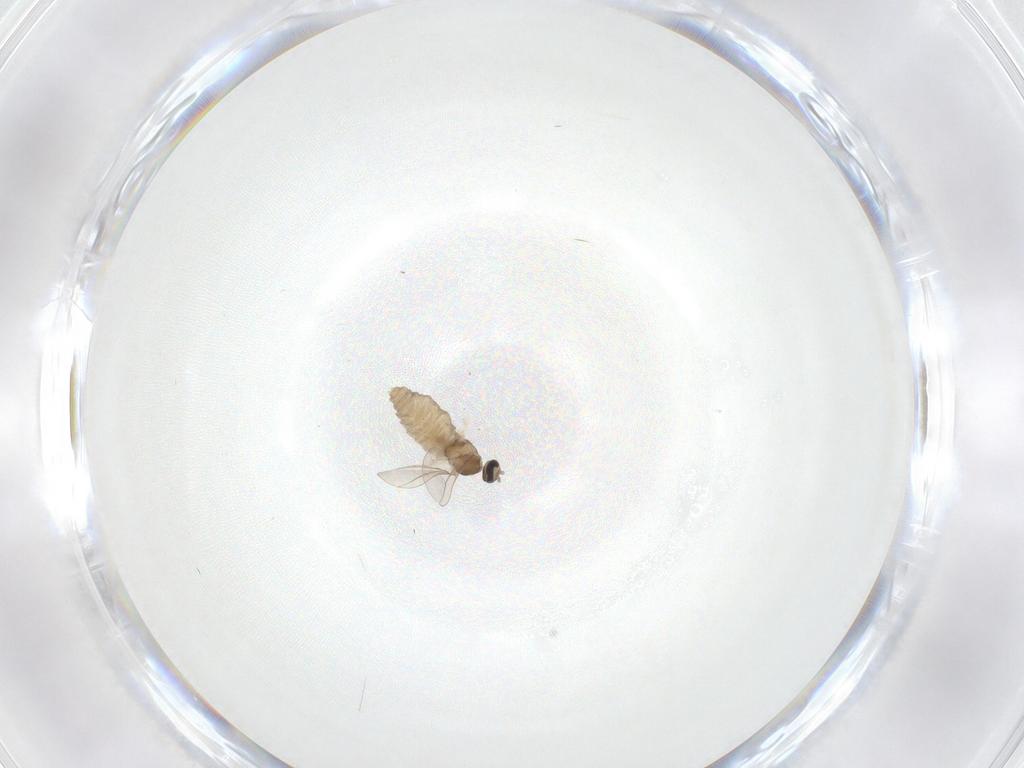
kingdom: Animalia
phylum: Arthropoda
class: Insecta
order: Diptera
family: Cecidomyiidae
